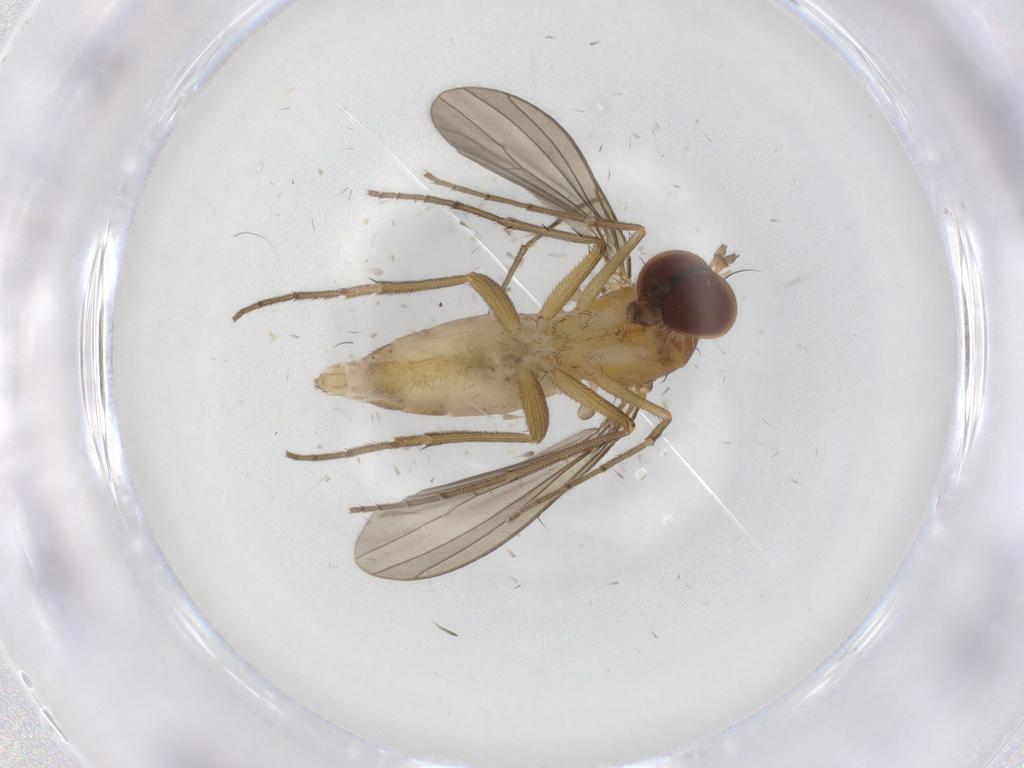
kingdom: Animalia
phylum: Arthropoda
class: Insecta
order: Diptera
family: Dolichopodidae
